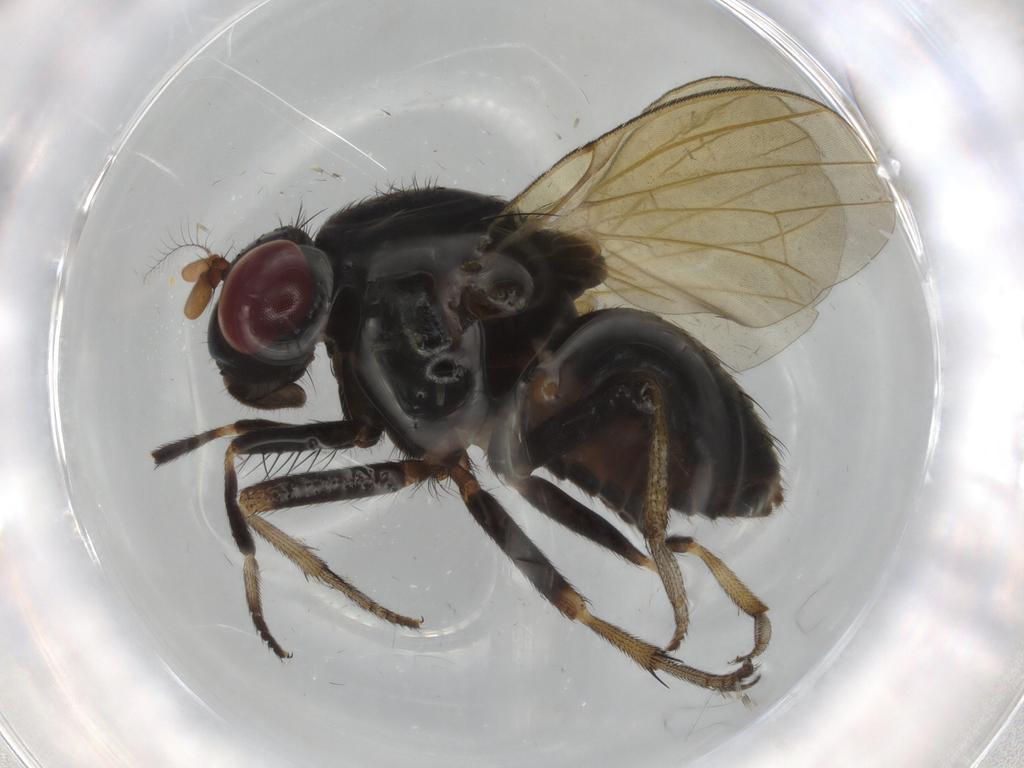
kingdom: Animalia
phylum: Arthropoda
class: Insecta
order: Diptera
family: Lauxaniidae
